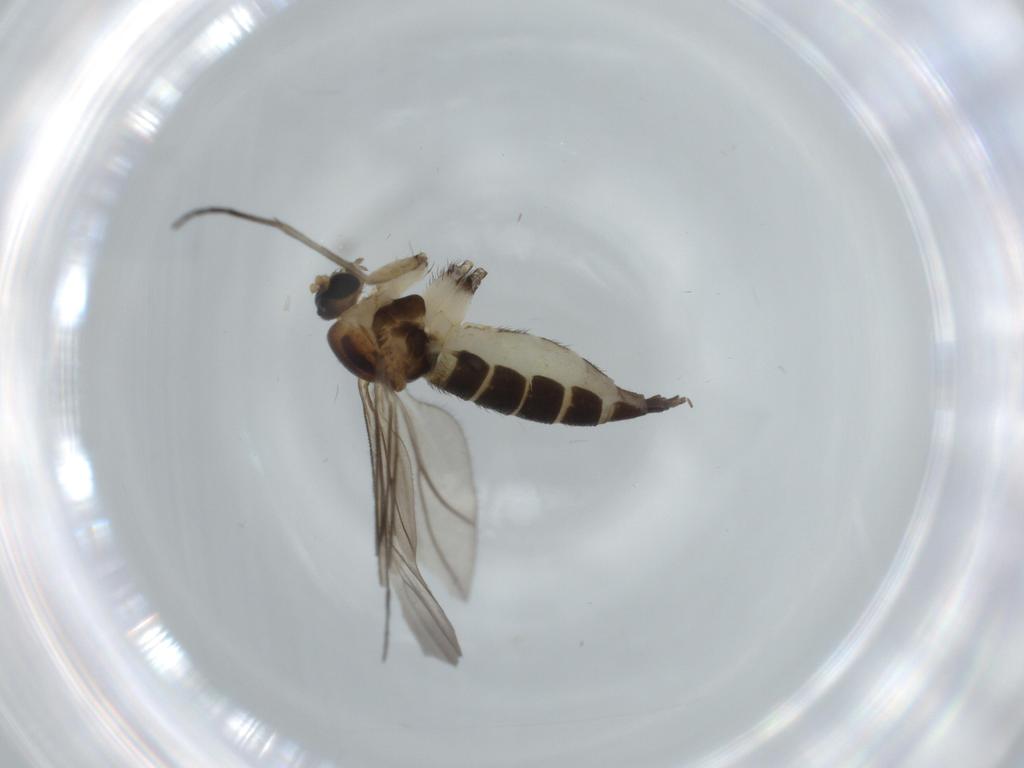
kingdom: Animalia
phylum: Arthropoda
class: Insecta
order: Diptera
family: Sciaridae
